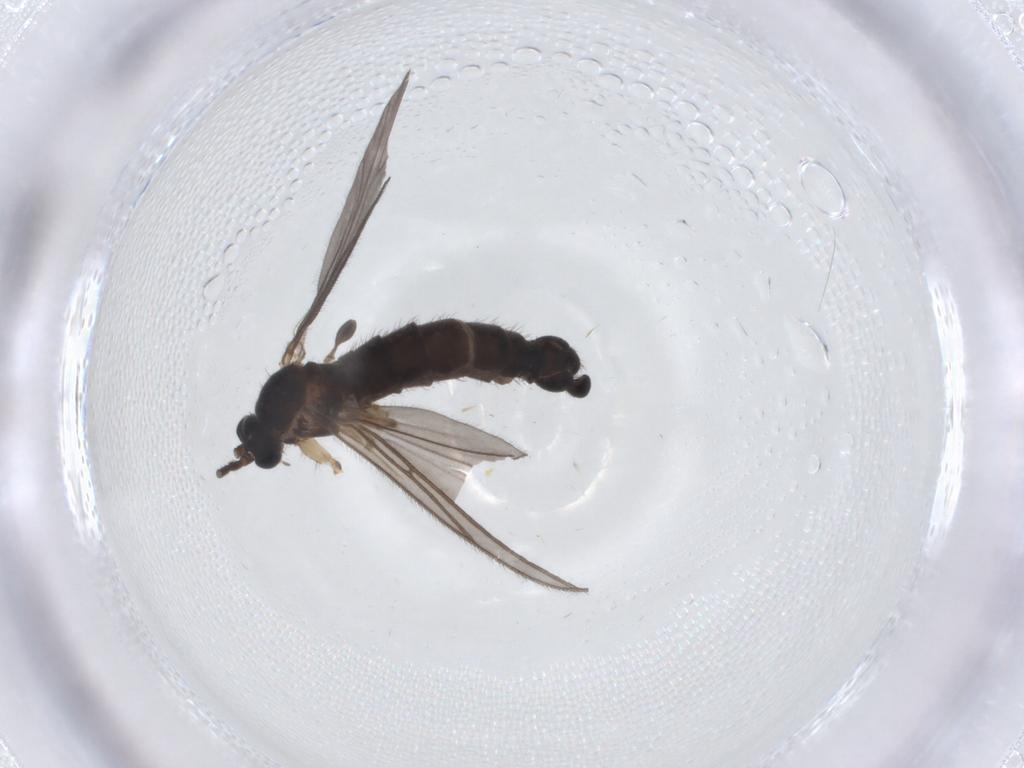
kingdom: Animalia
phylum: Arthropoda
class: Insecta
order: Diptera
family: Sciaridae
